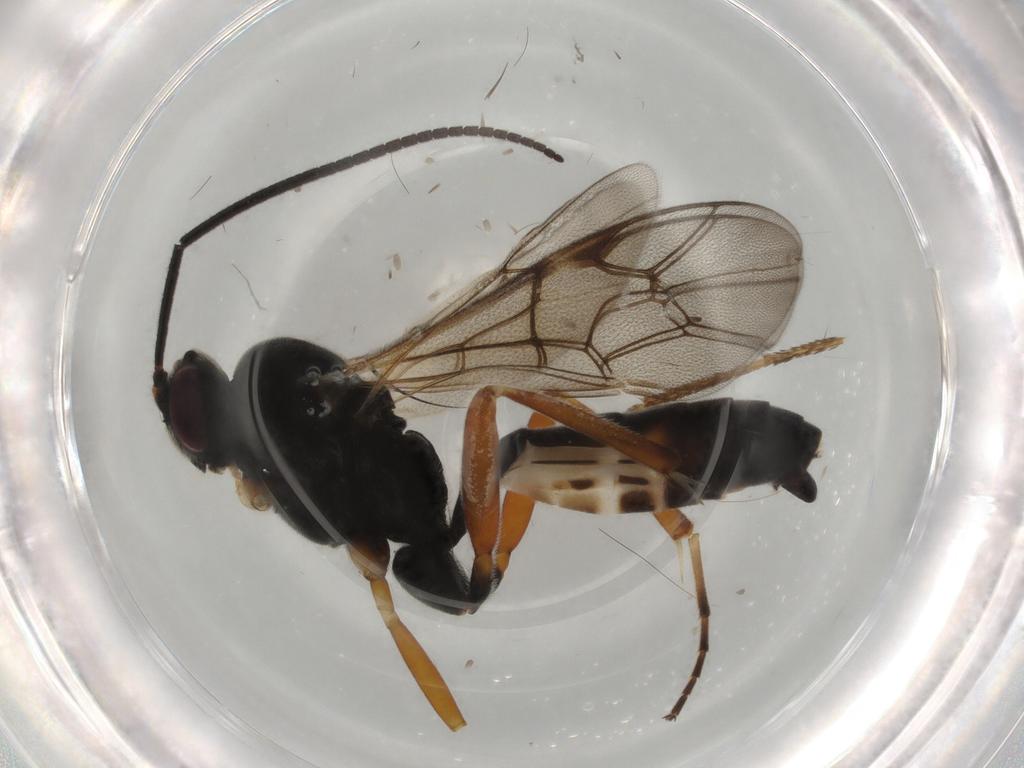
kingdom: Animalia
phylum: Arthropoda
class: Insecta
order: Hymenoptera
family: Ichneumonidae
